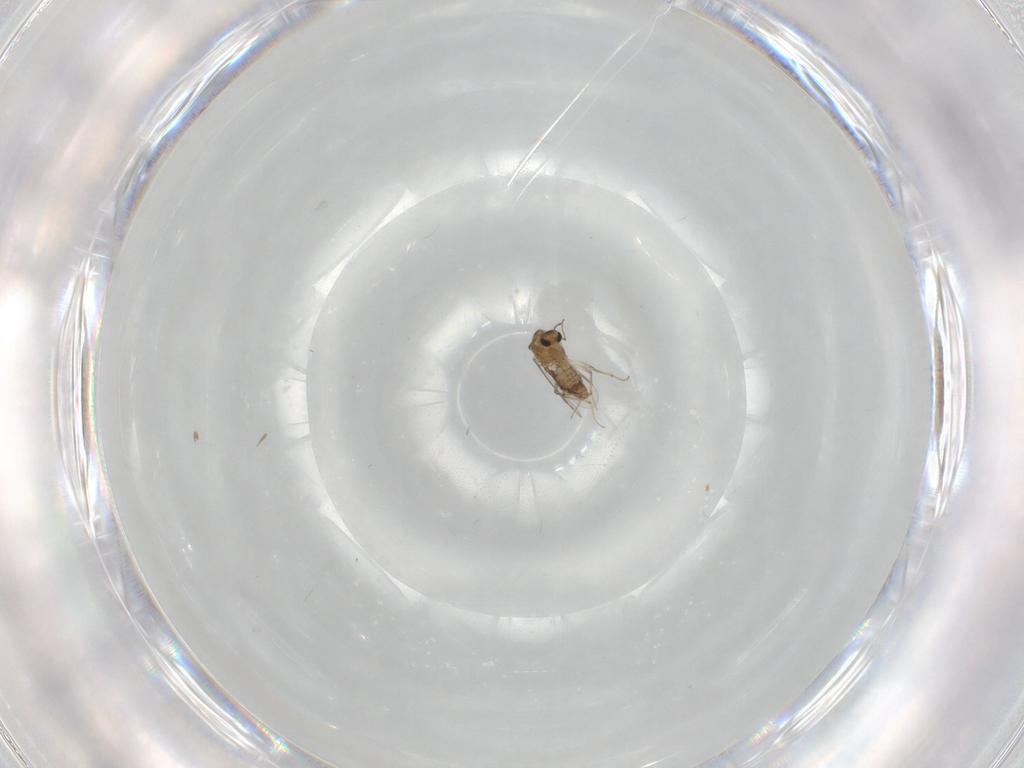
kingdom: Animalia
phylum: Arthropoda
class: Insecta
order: Diptera
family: Chironomidae
